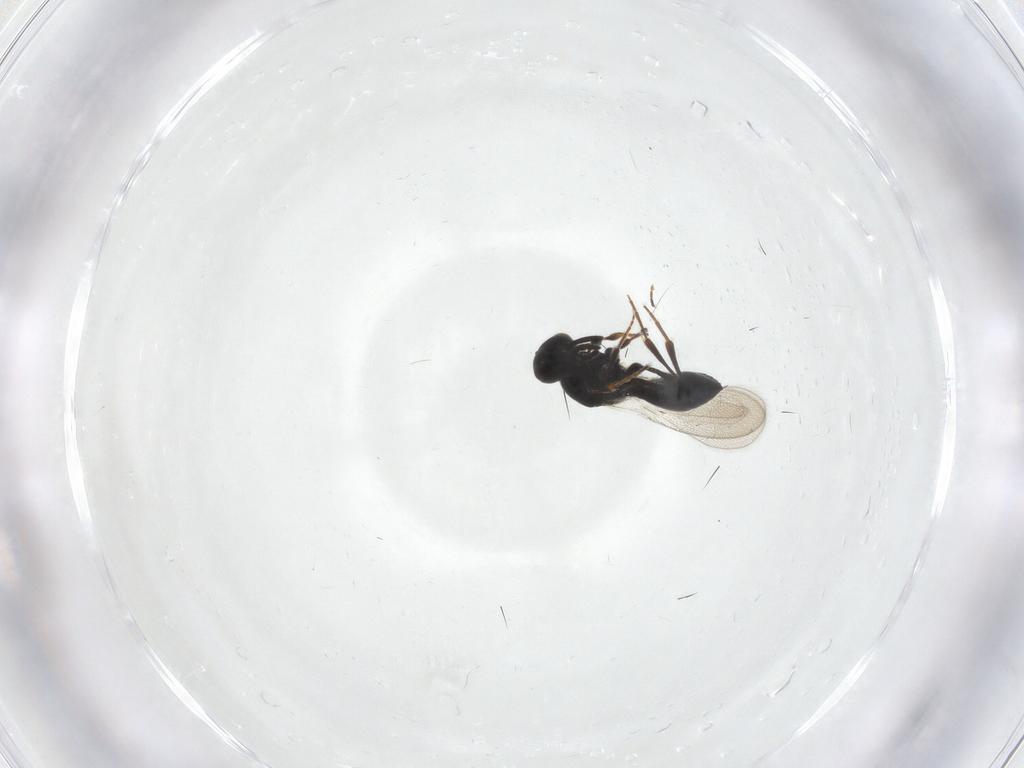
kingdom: Animalia
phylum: Arthropoda
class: Insecta
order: Hymenoptera
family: Platygastridae
